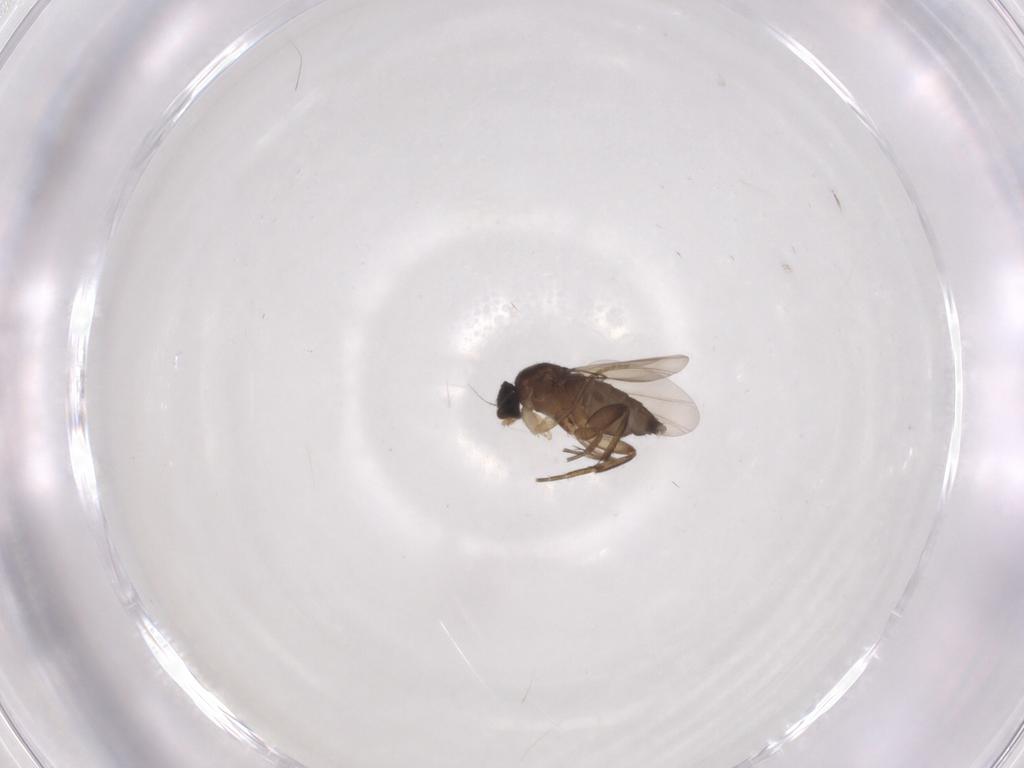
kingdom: Animalia
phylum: Arthropoda
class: Insecta
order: Diptera
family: Phoridae
